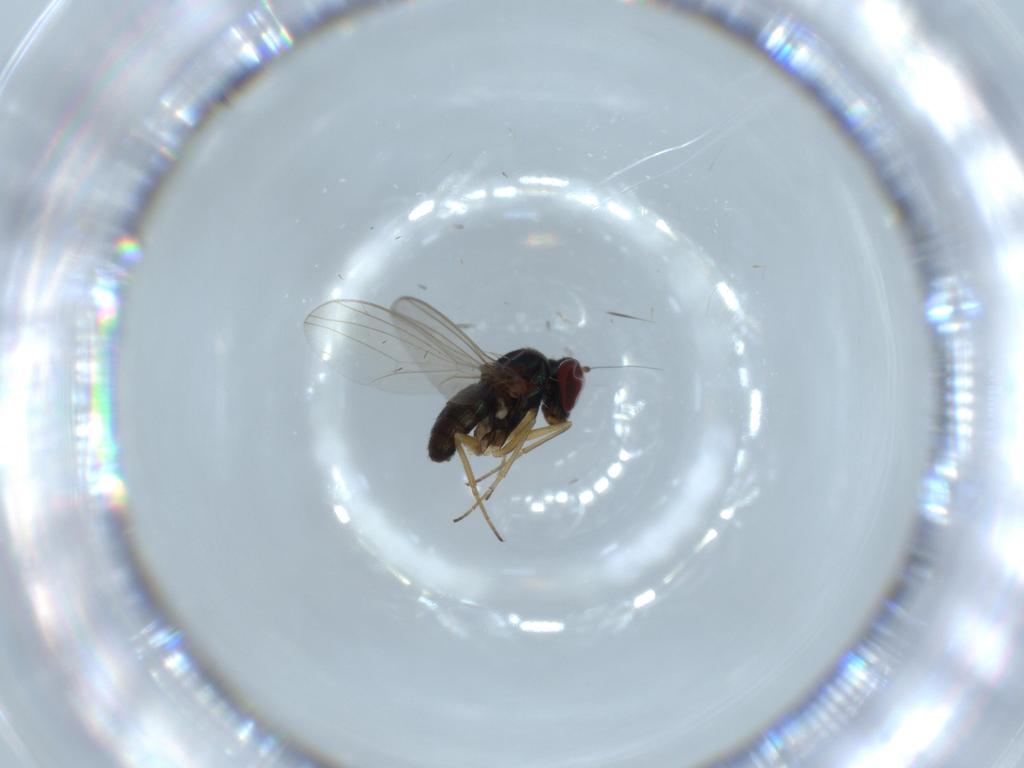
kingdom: Animalia
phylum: Arthropoda
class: Insecta
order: Diptera
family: Dolichopodidae
